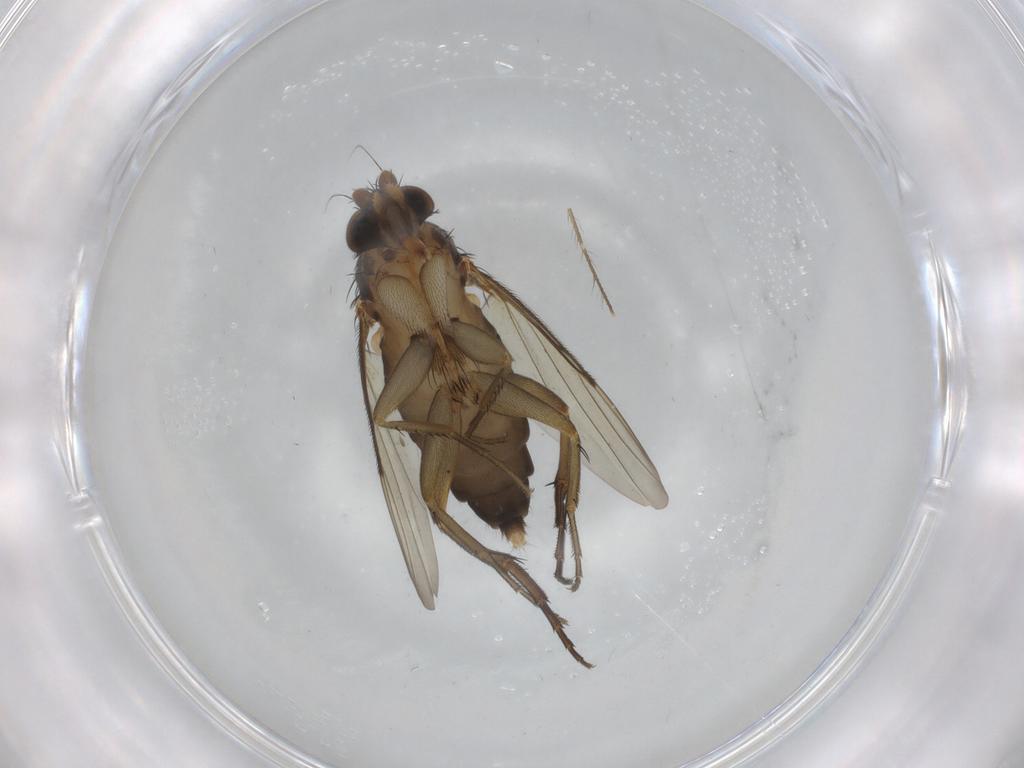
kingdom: Animalia
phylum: Arthropoda
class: Insecta
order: Diptera
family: Phoridae
